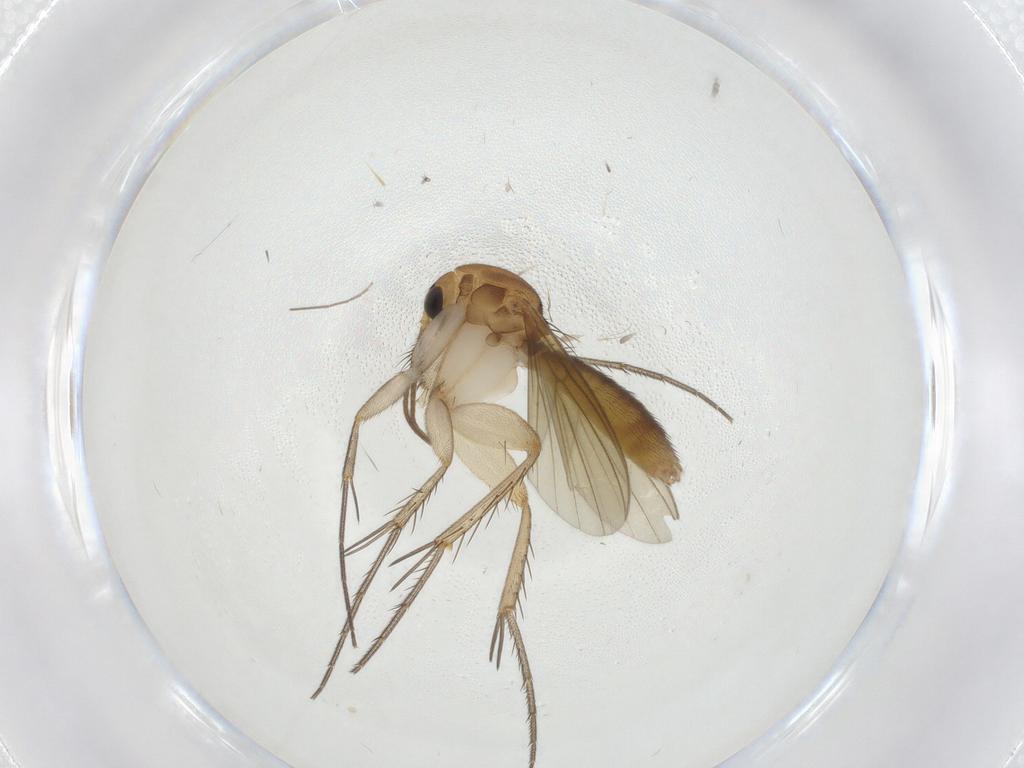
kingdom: Animalia
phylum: Arthropoda
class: Insecta
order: Diptera
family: Mycetophilidae
